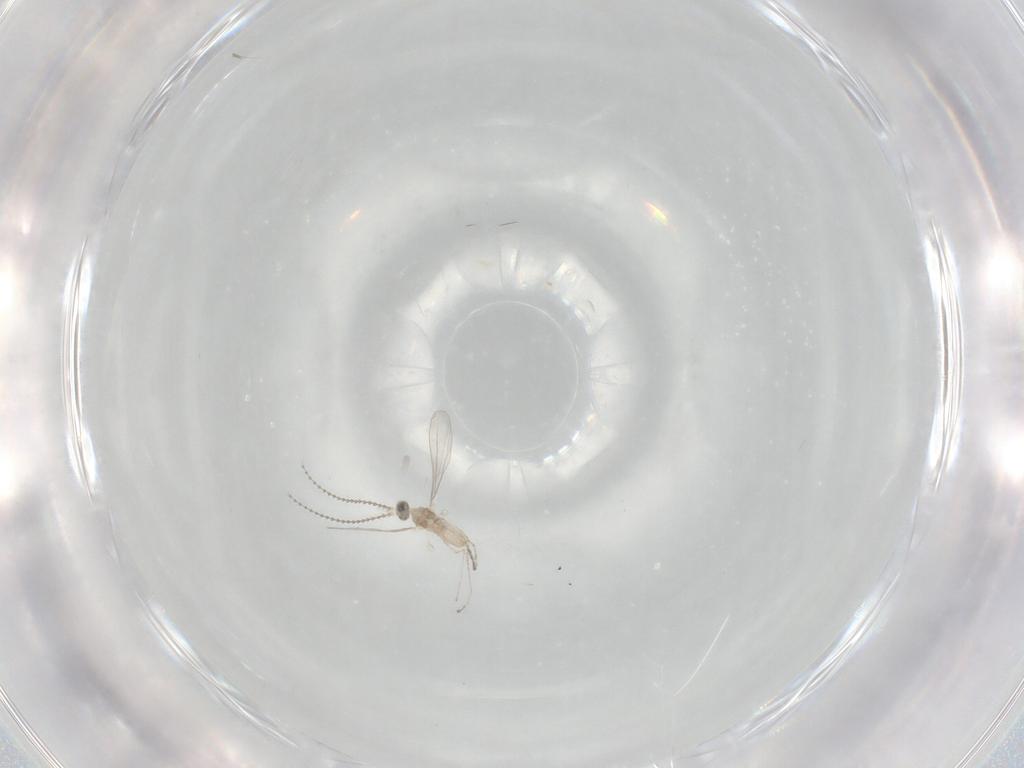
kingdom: Animalia
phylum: Arthropoda
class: Insecta
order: Diptera
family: Cecidomyiidae
